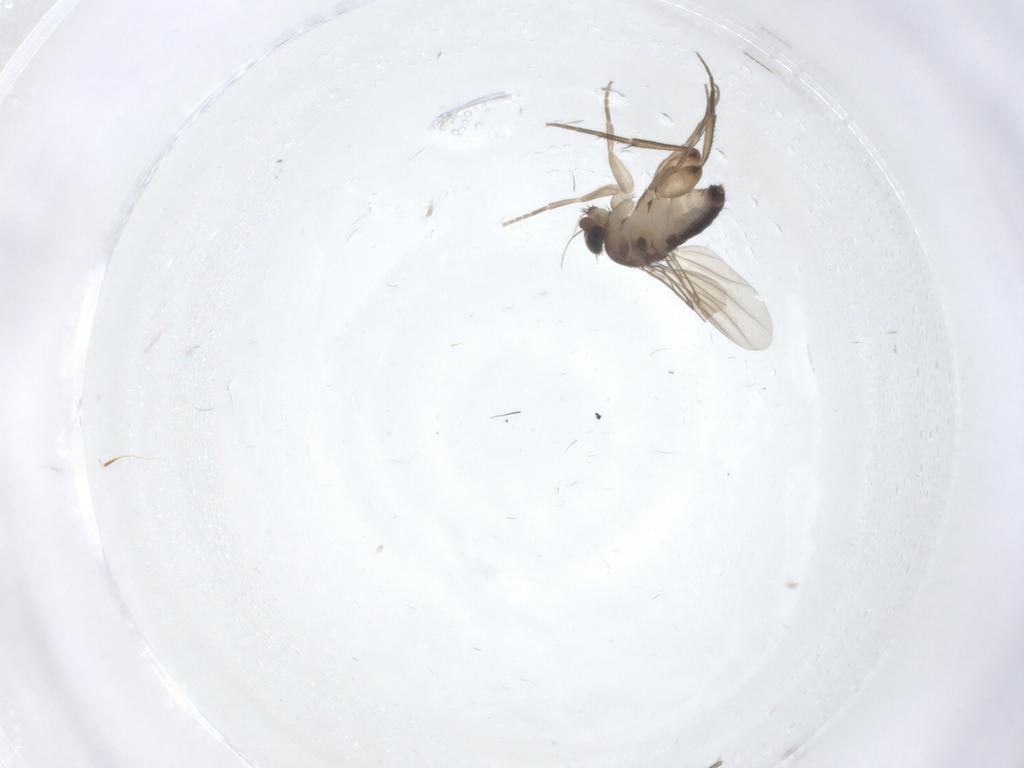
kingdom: Animalia
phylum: Arthropoda
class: Insecta
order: Diptera
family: Phoridae
